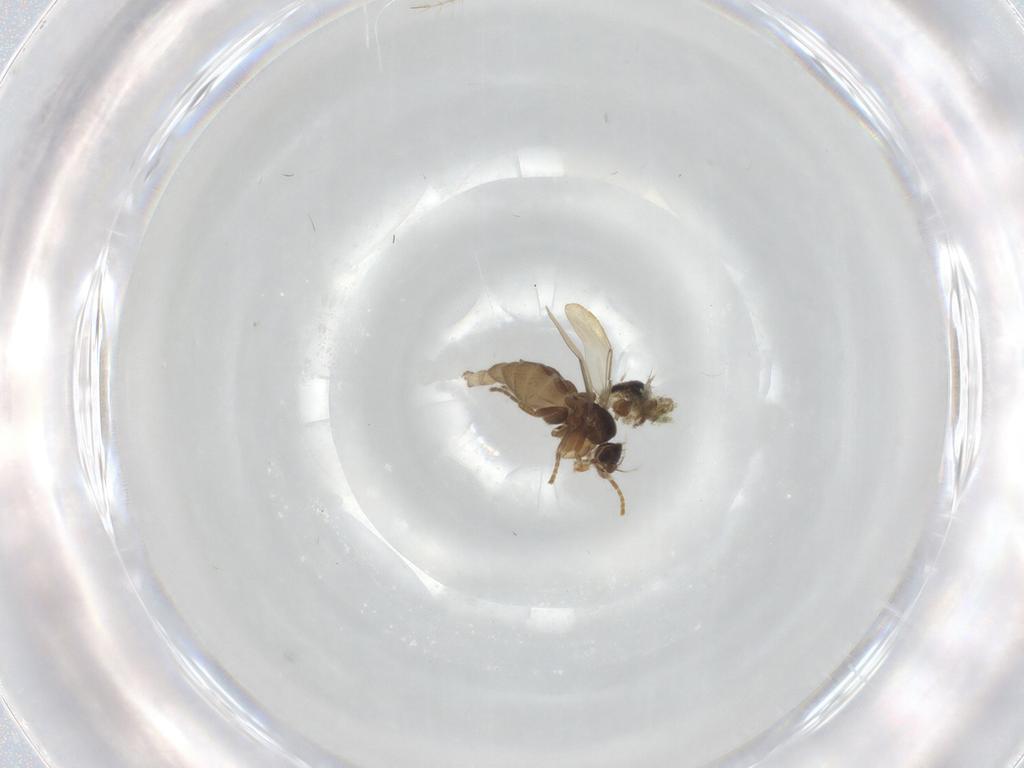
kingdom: Animalia
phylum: Arthropoda
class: Insecta
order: Diptera
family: Phoridae
